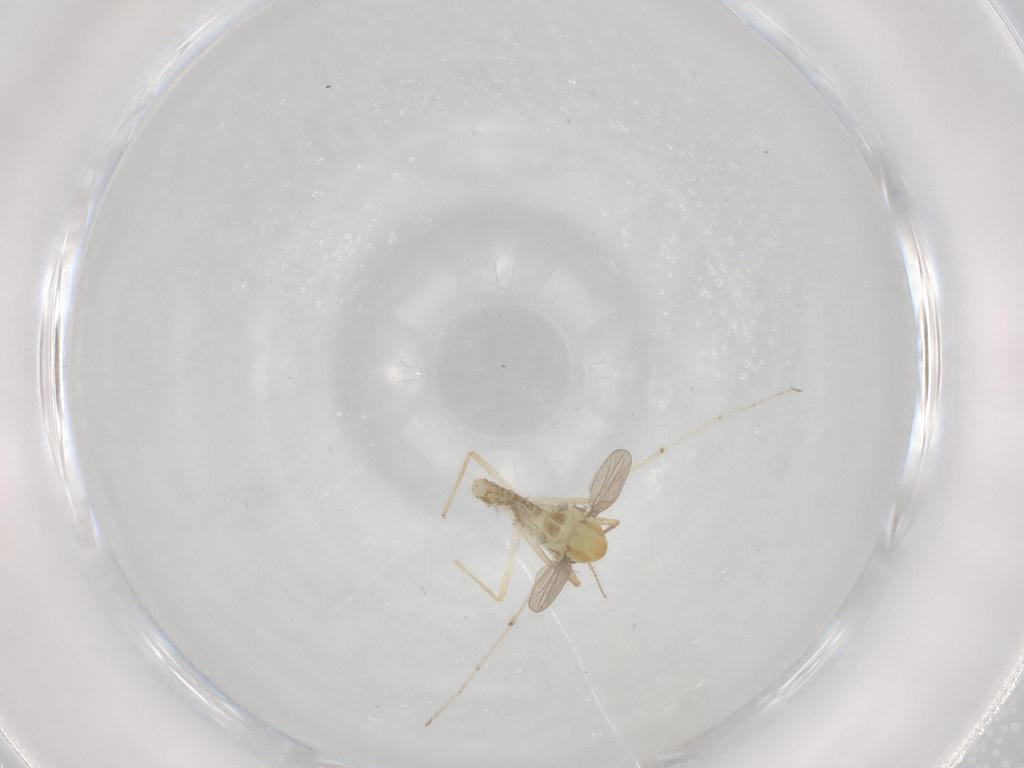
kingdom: Animalia
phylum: Arthropoda
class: Insecta
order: Diptera
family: Chironomidae
